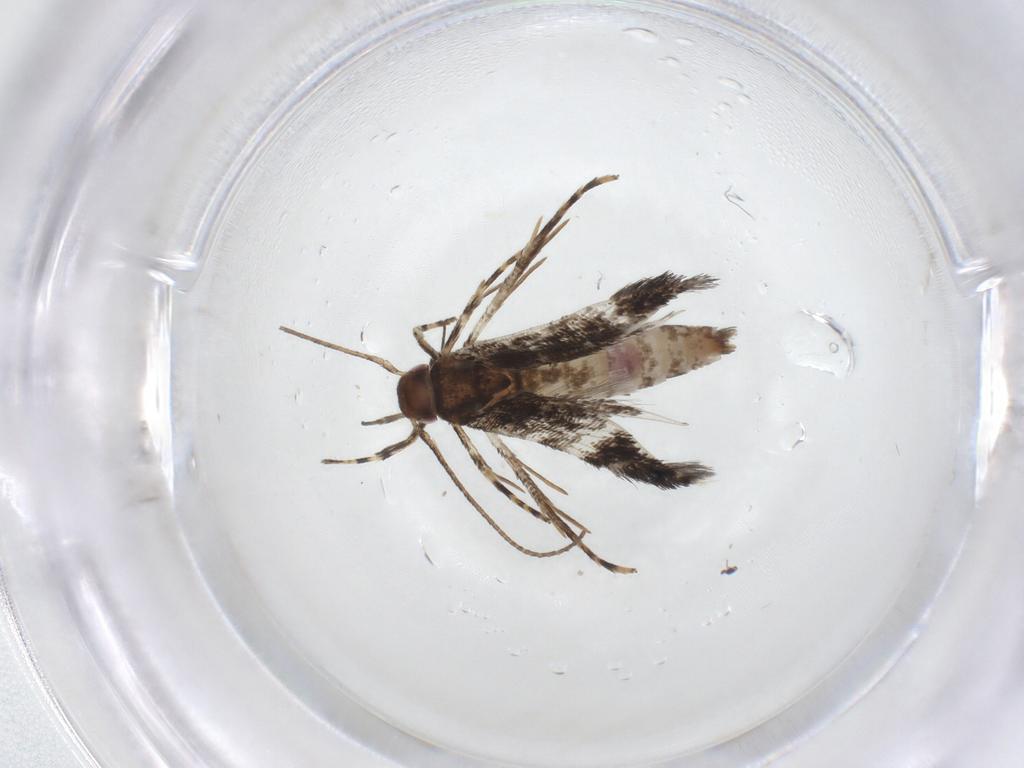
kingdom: Animalia
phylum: Arthropoda
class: Insecta
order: Lepidoptera
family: Cosmopterigidae
